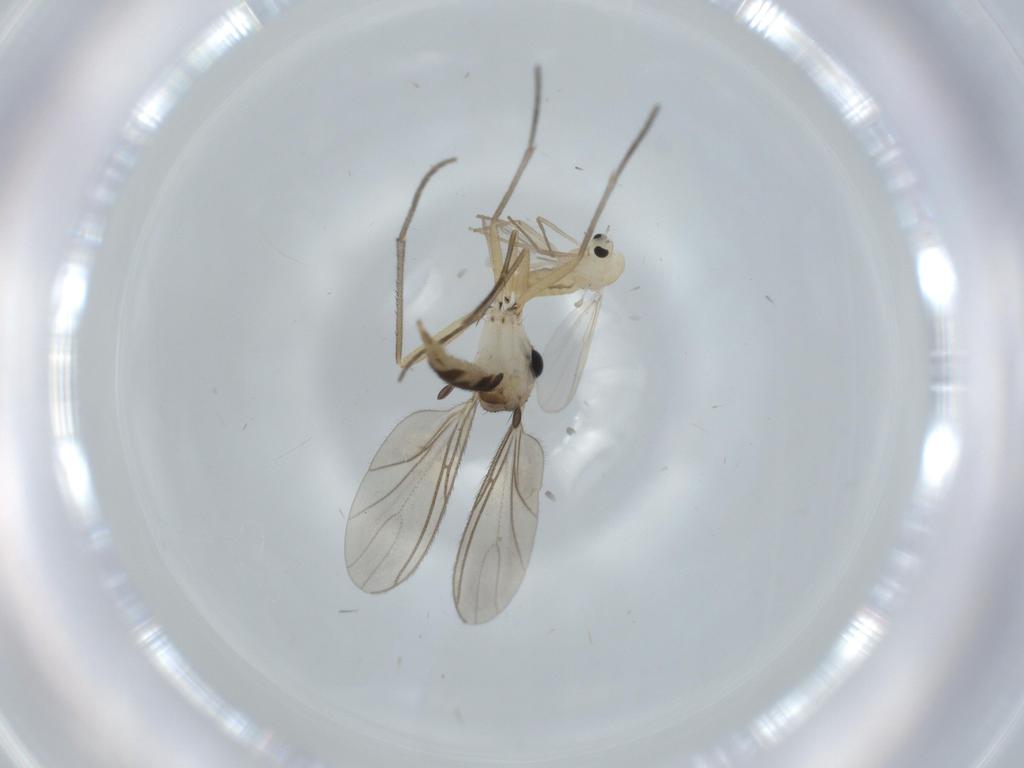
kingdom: Animalia
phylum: Arthropoda
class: Insecta
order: Diptera
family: Sciaridae
